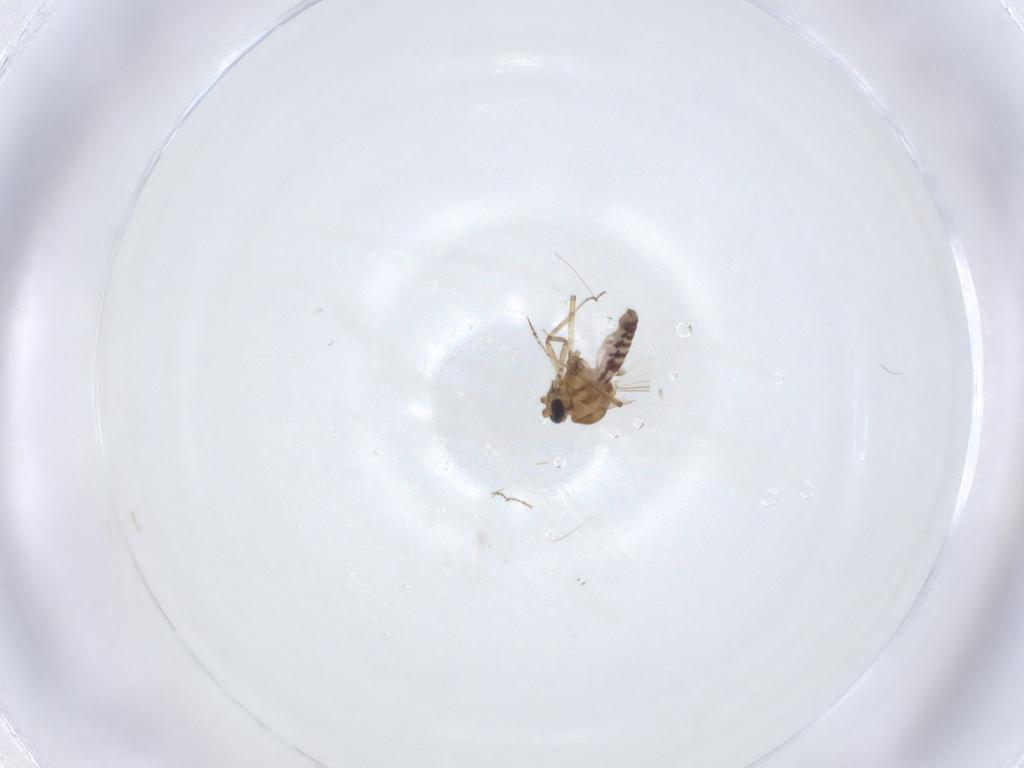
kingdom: Animalia
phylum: Arthropoda
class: Insecta
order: Diptera
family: Ceratopogonidae
